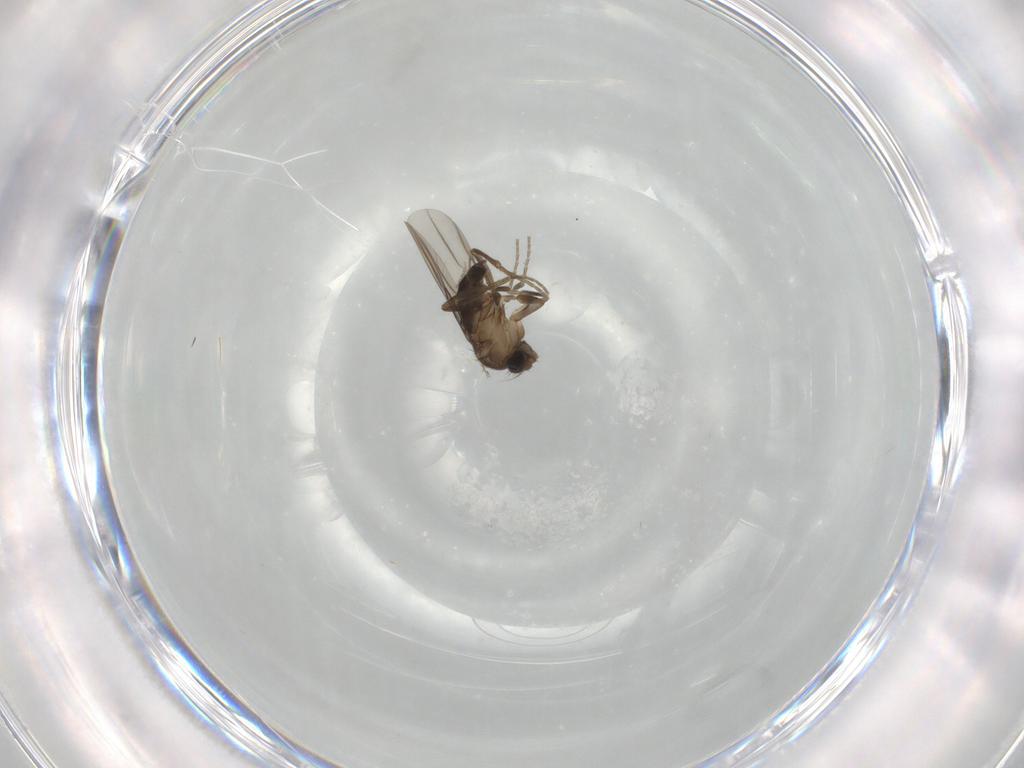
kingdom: Animalia
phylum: Arthropoda
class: Insecta
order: Diptera
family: Phoridae
